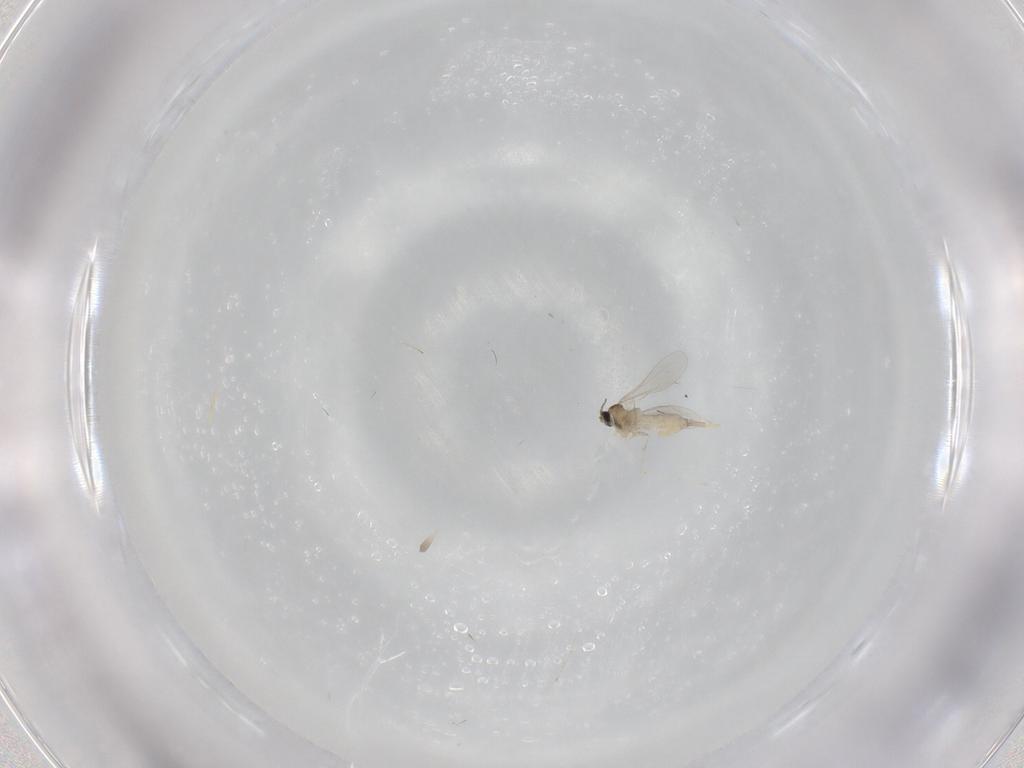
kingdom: Animalia
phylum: Arthropoda
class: Insecta
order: Diptera
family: Chironomidae
